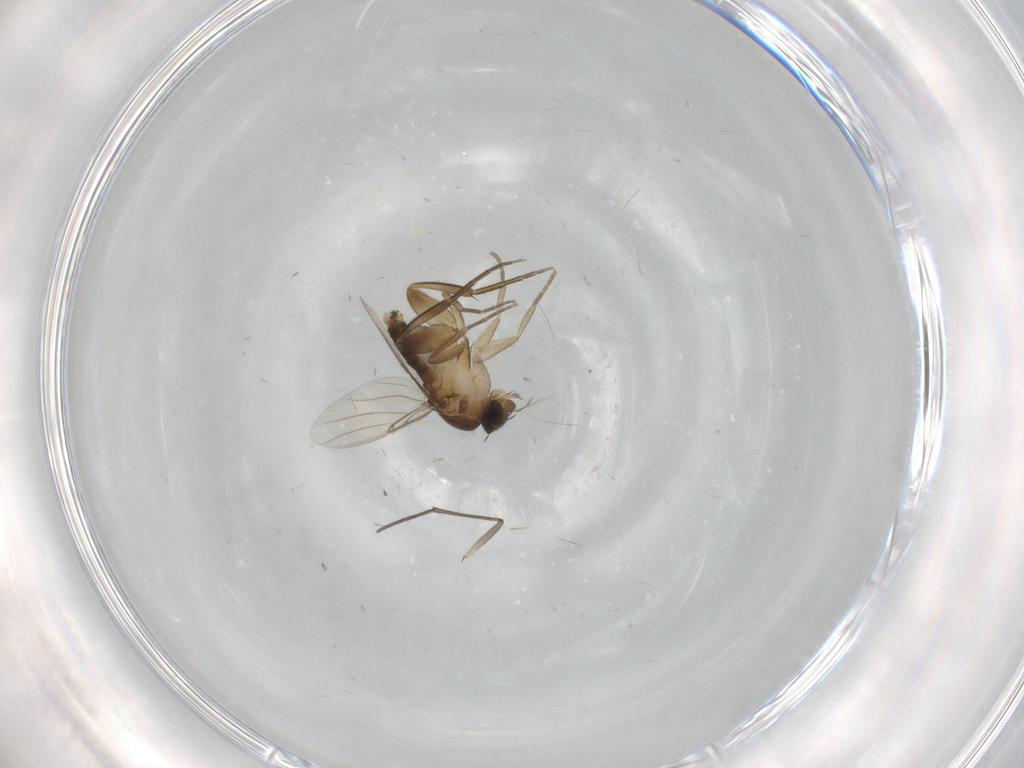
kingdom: Animalia
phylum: Arthropoda
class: Insecta
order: Diptera
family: Phoridae
